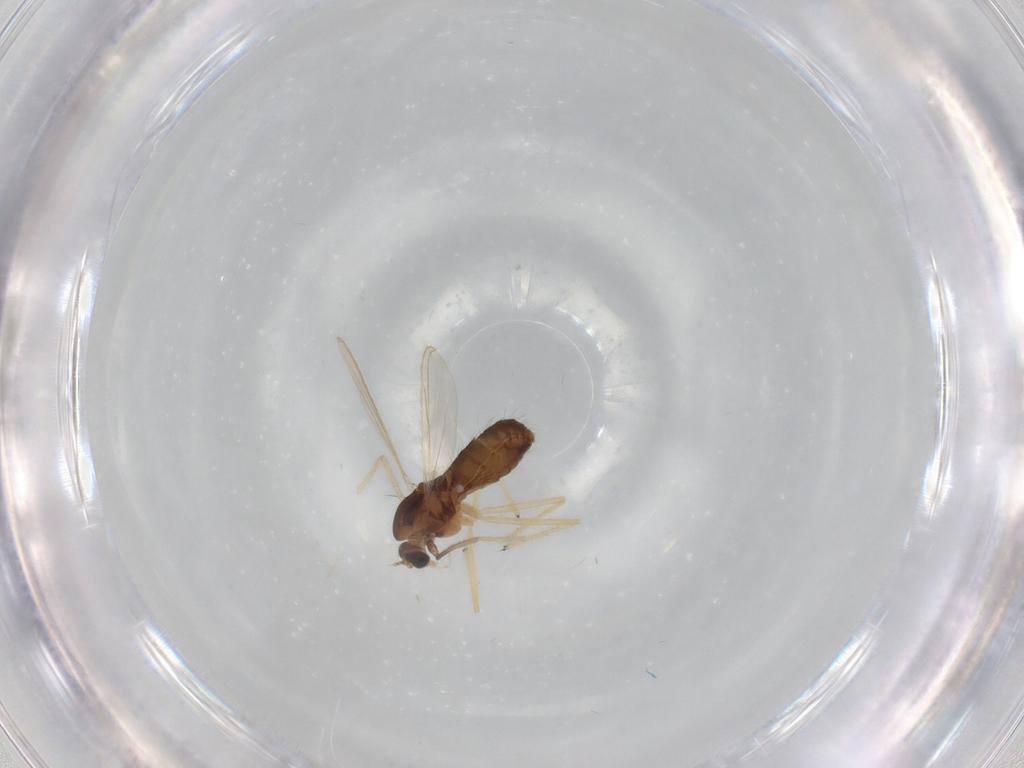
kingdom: Animalia
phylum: Arthropoda
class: Insecta
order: Diptera
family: Chironomidae
